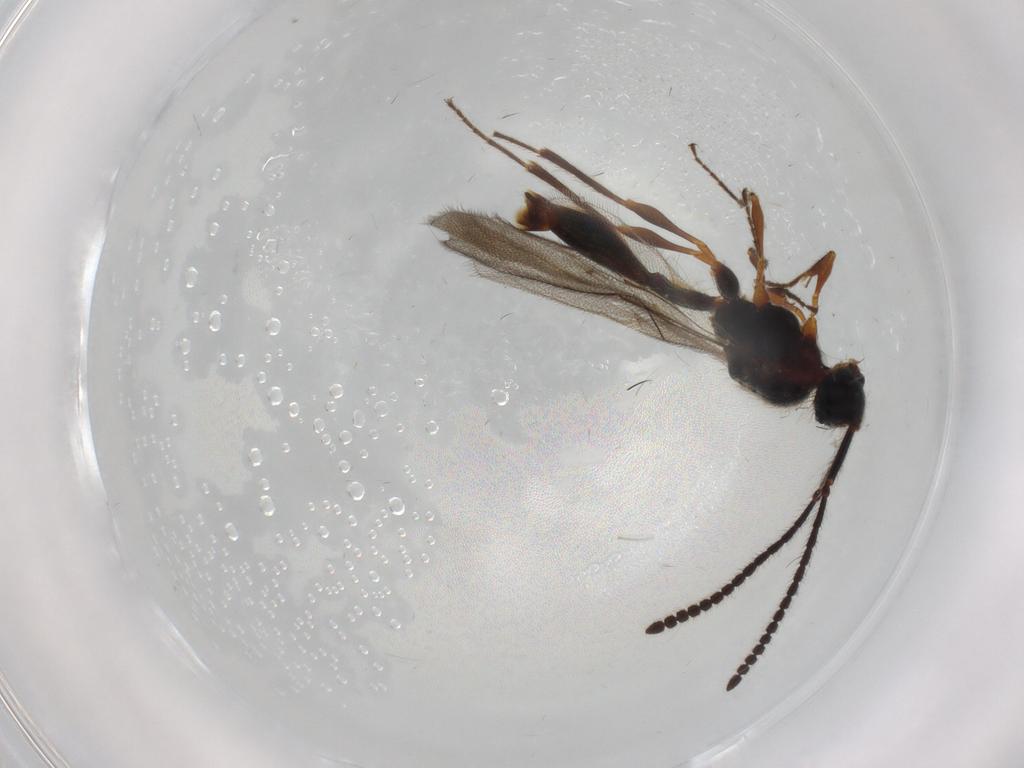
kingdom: Animalia
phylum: Arthropoda
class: Insecta
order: Hymenoptera
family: Diapriidae
